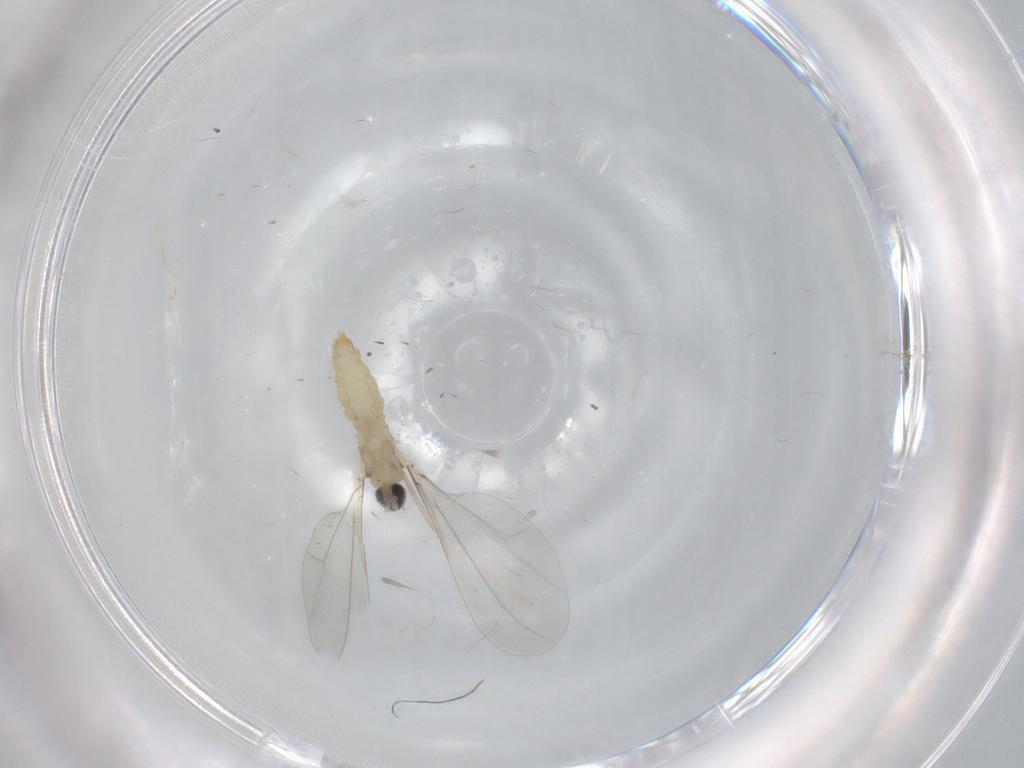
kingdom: Animalia
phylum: Arthropoda
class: Insecta
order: Diptera
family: Cecidomyiidae
